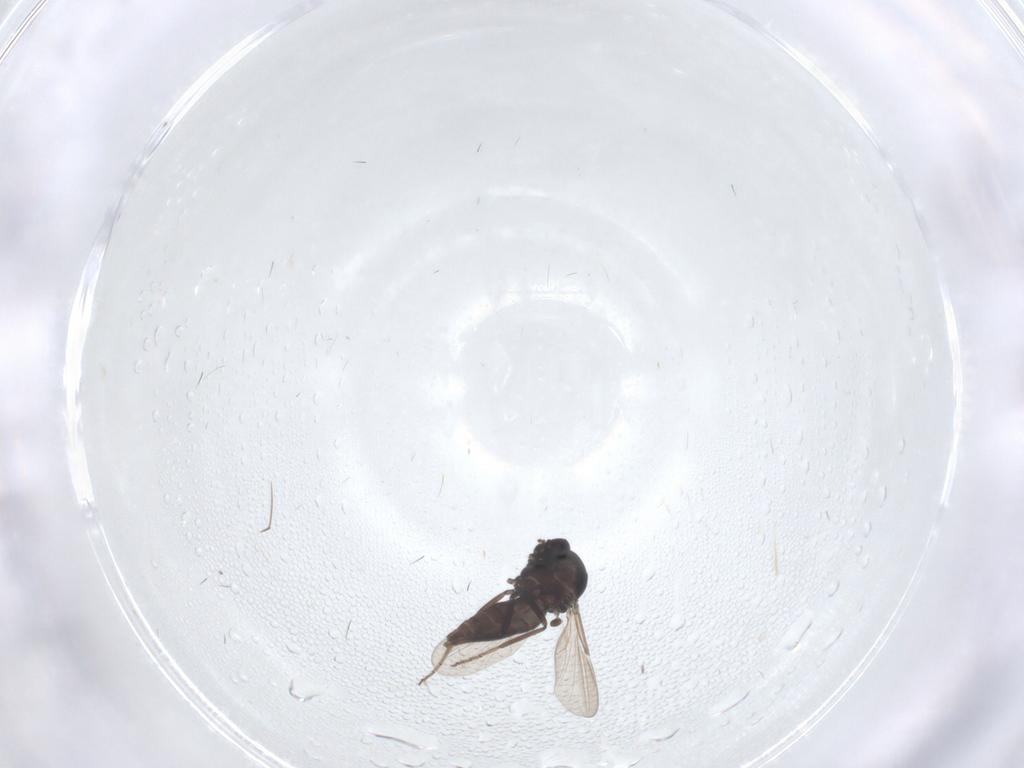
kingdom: Animalia
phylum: Arthropoda
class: Insecta
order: Diptera
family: Ceratopogonidae
